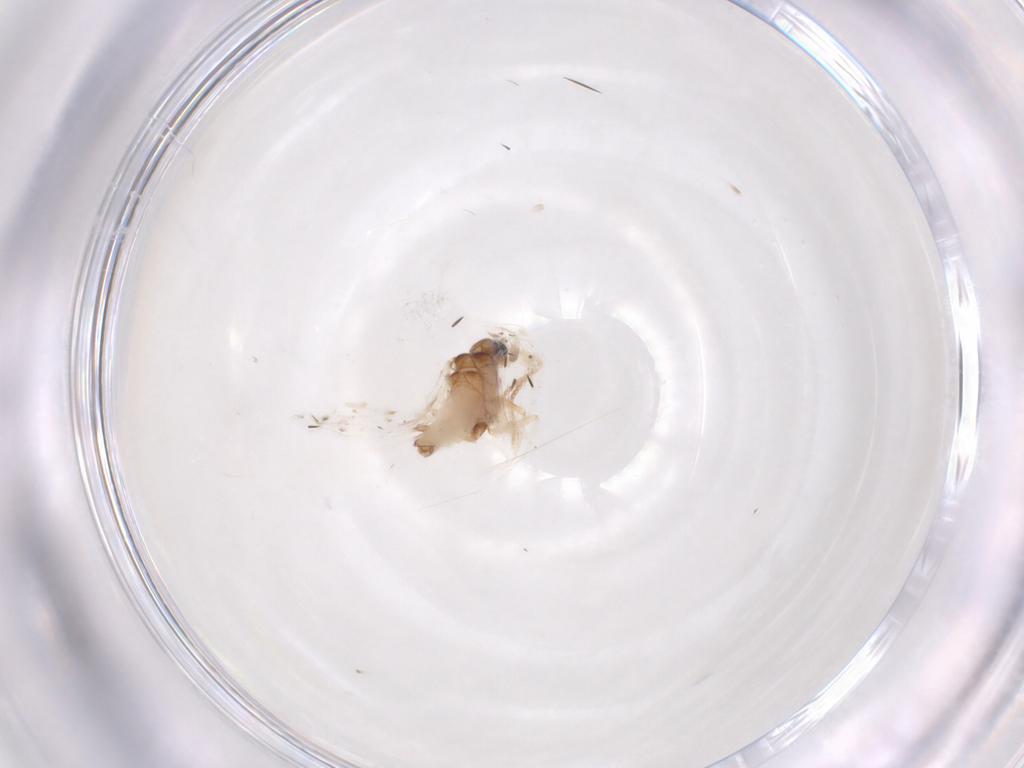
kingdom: Animalia
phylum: Arthropoda
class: Insecta
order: Neuroptera
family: Coniopterygidae
